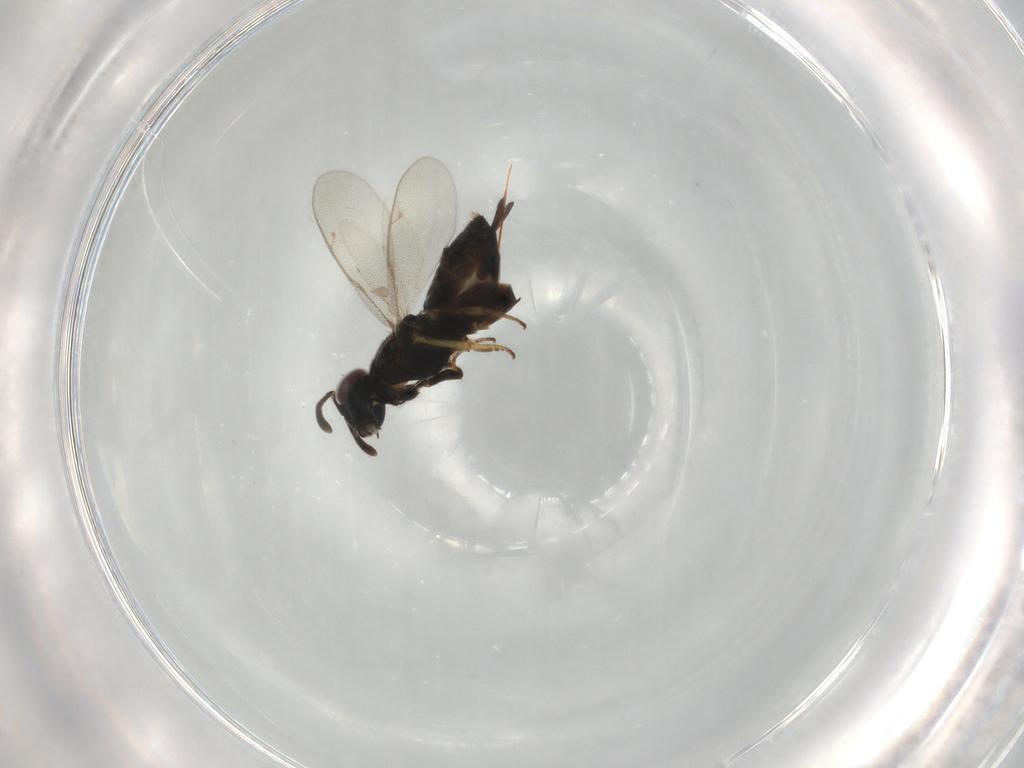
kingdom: Animalia
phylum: Arthropoda
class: Insecta
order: Hymenoptera
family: Eupelmidae
